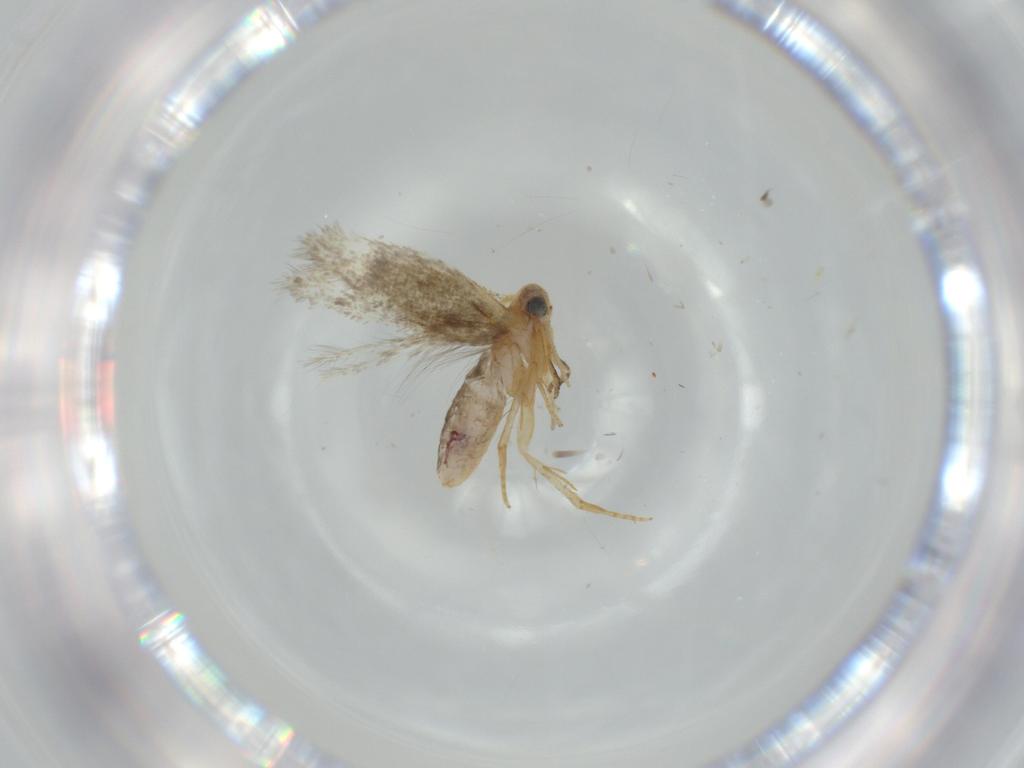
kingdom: Animalia
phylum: Arthropoda
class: Insecta
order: Lepidoptera
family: Nepticulidae
